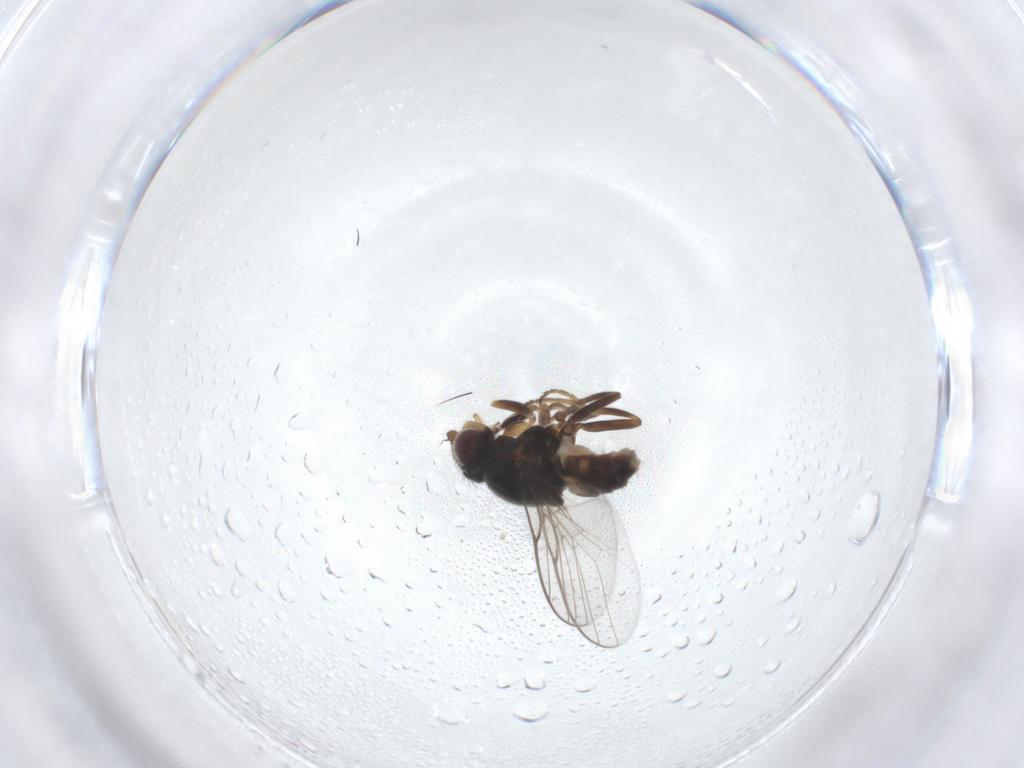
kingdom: Animalia
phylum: Arthropoda
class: Insecta
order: Diptera
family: Chloropidae
